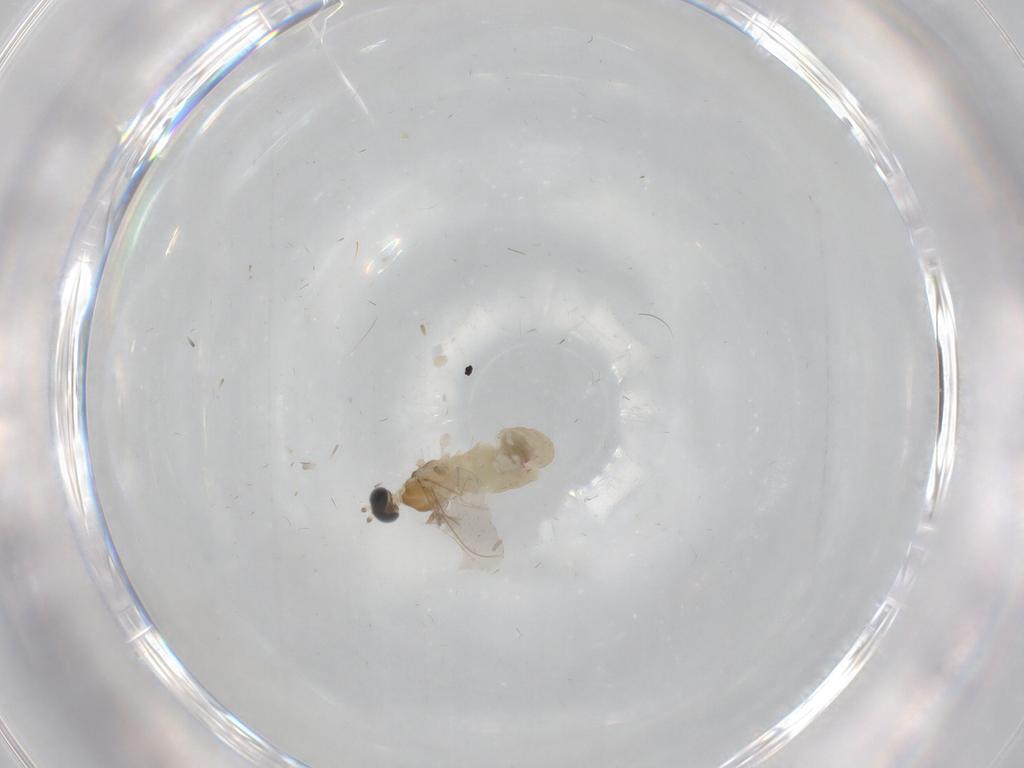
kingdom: Animalia
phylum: Arthropoda
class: Insecta
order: Diptera
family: Cecidomyiidae
